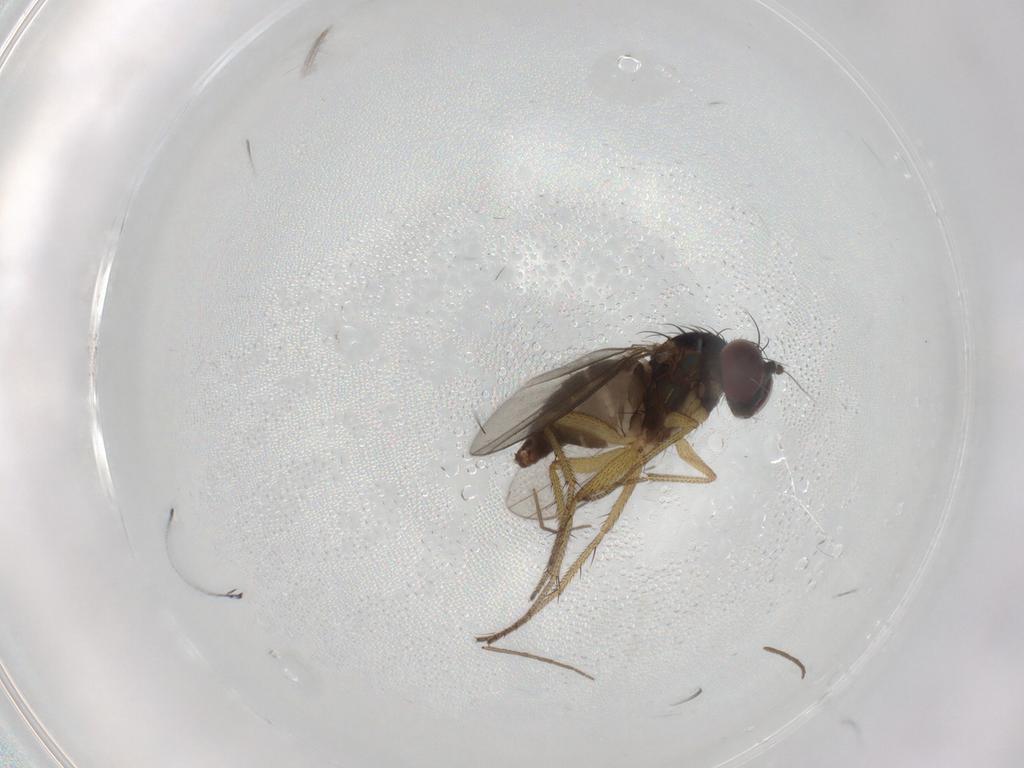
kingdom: Animalia
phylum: Arthropoda
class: Insecta
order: Diptera
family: Chironomidae
